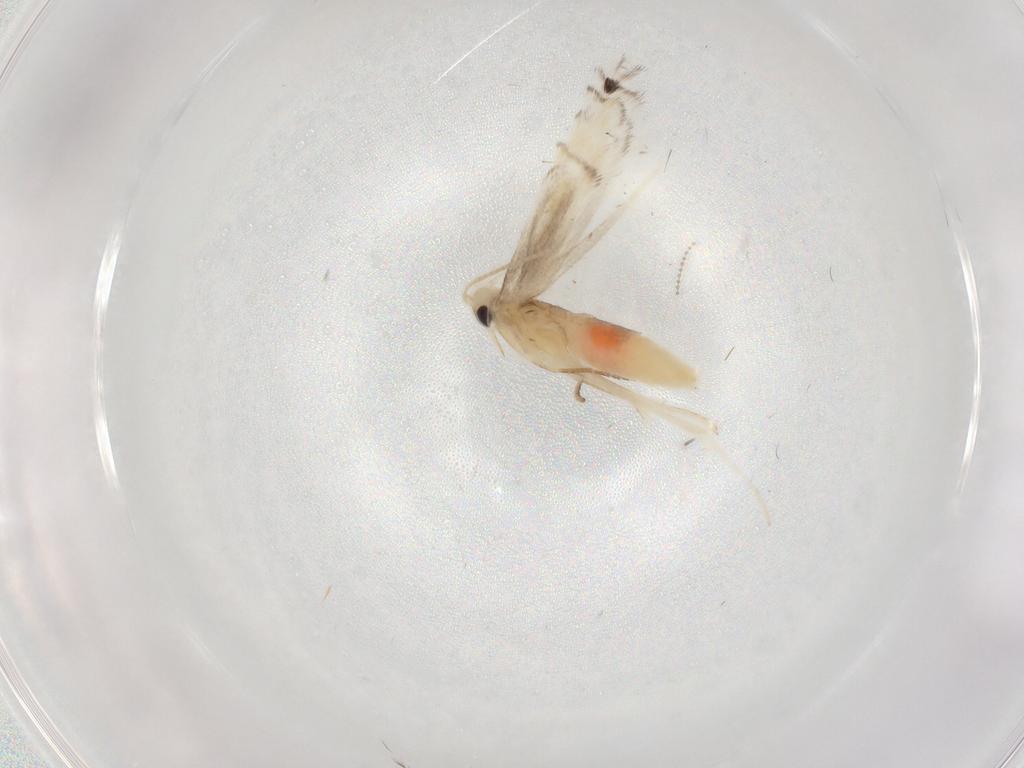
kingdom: Animalia
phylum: Arthropoda
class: Insecta
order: Lepidoptera
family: Gracillariidae
